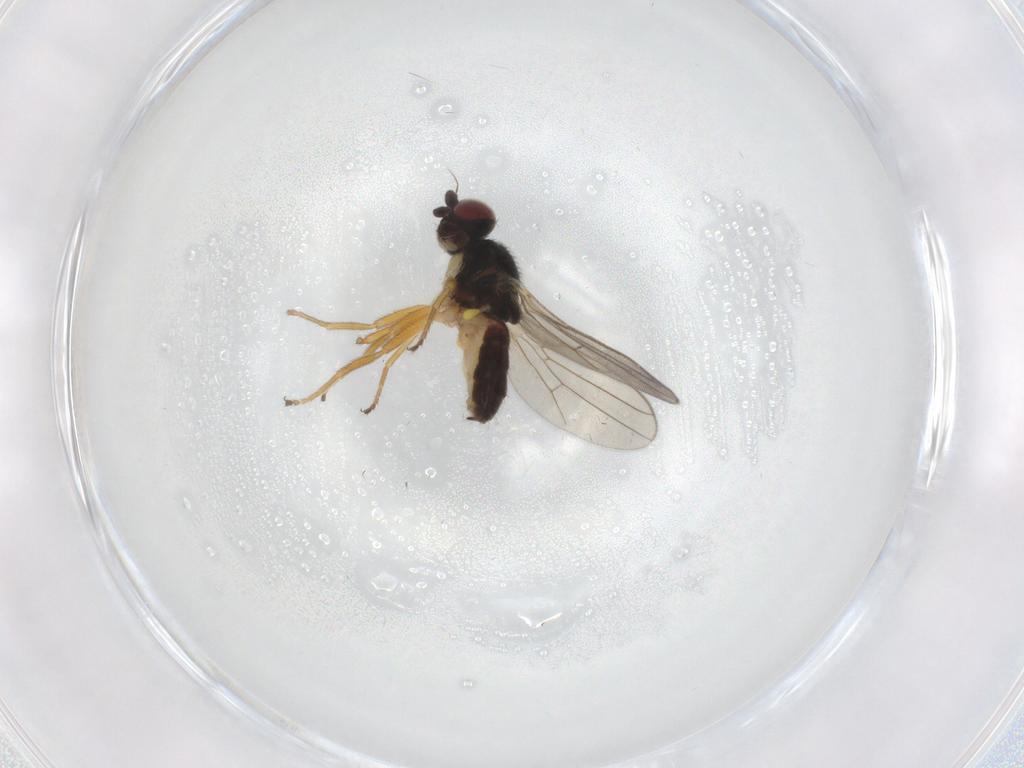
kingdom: Animalia
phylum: Arthropoda
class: Insecta
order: Diptera
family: Chloropidae
